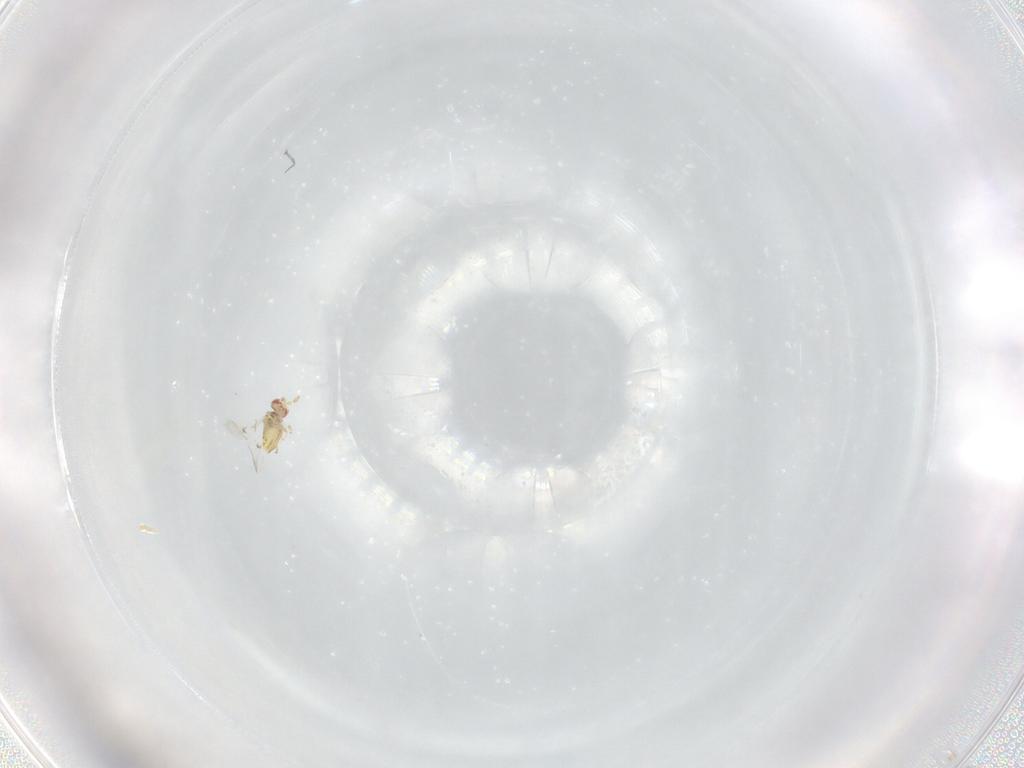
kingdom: Animalia
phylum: Arthropoda
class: Insecta
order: Hymenoptera
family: Trichogrammatidae
